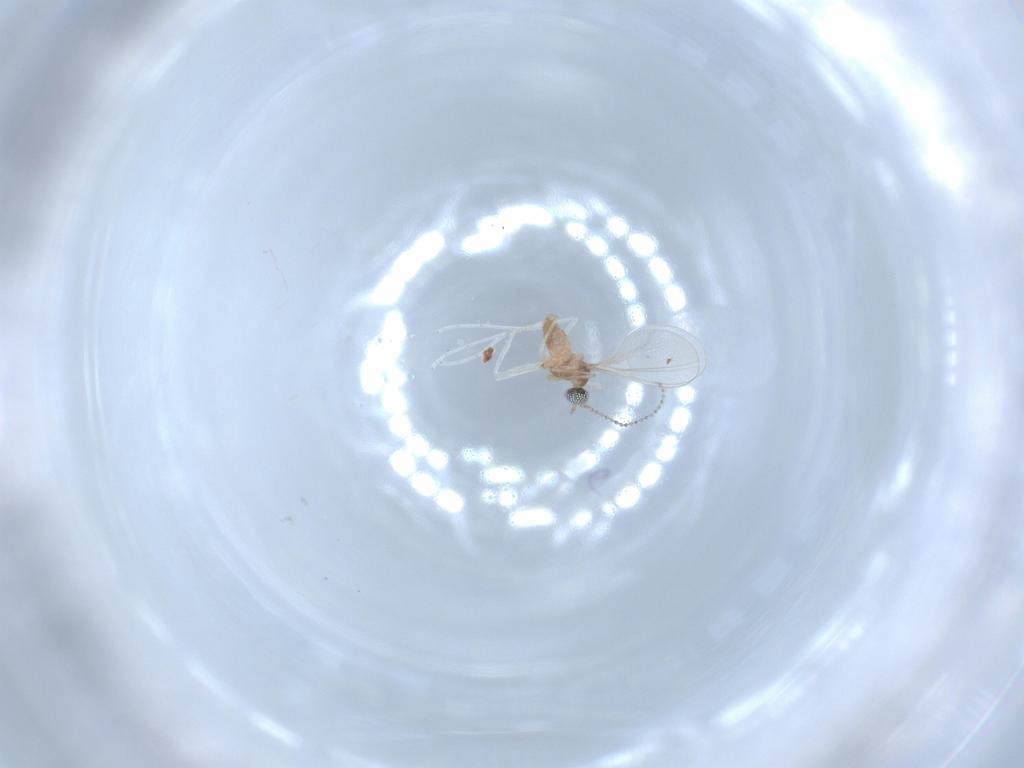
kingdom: Animalia
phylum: Arthropoda
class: Insecta
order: Diptera
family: Cecidomyiidae
